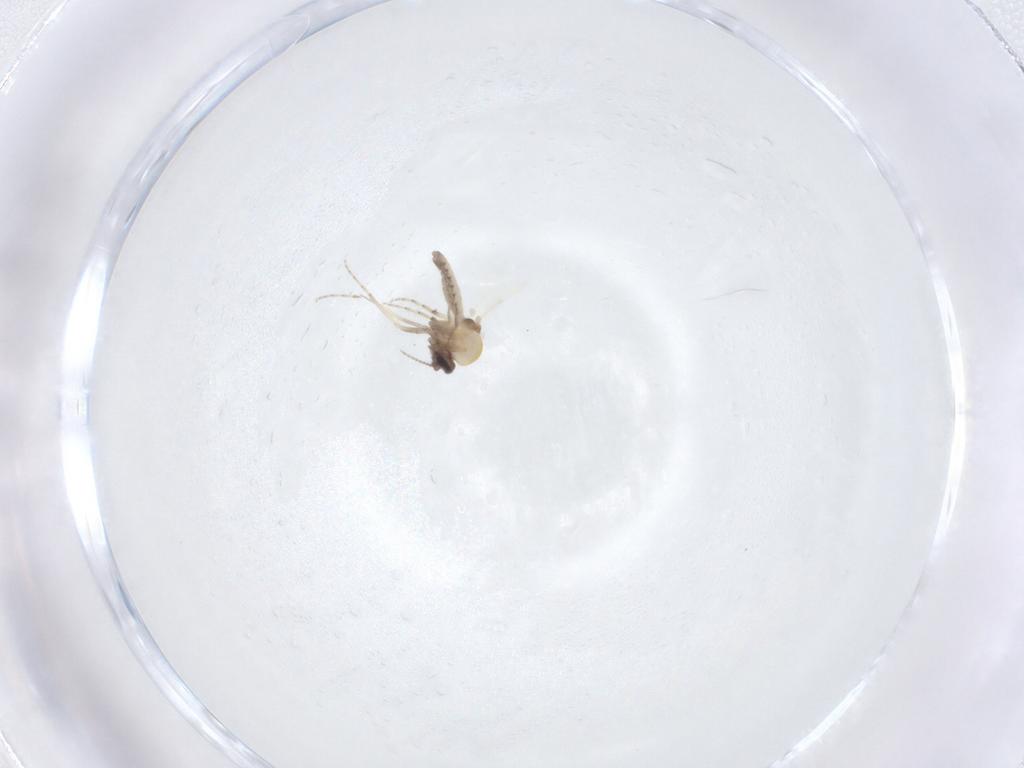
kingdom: Animalia
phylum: Arthropoda
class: Insecta
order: Diptera
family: Ceratopogonidae
